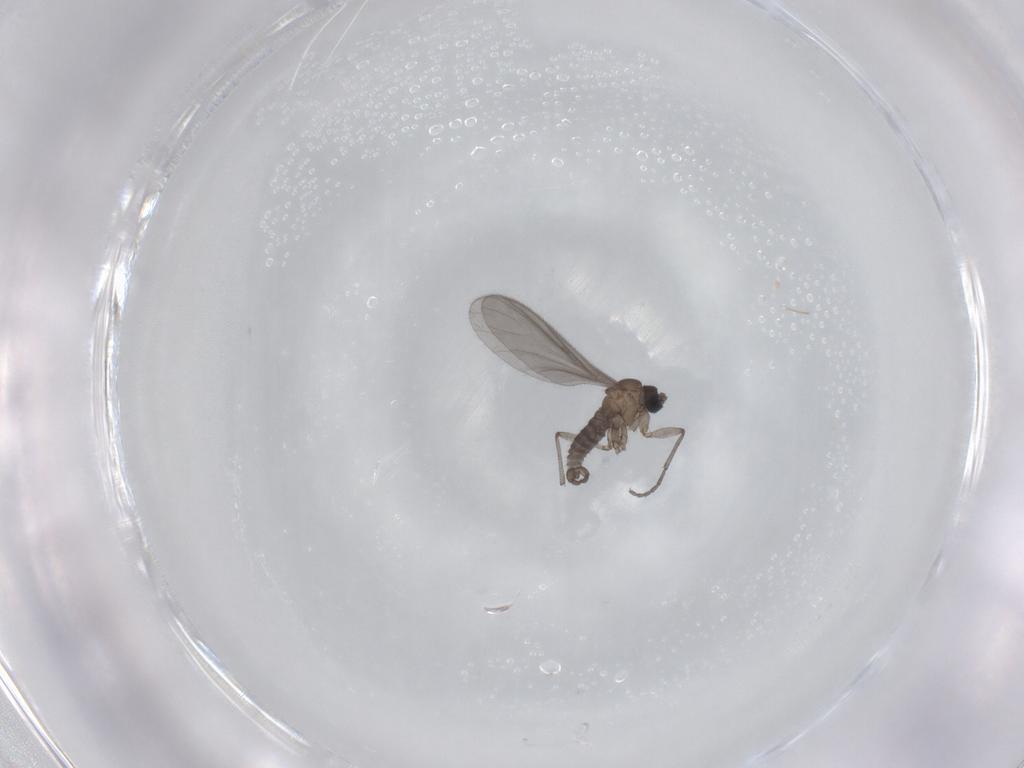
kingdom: Animalia
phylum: Arthropoda
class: Insecta
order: Diptera
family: Sciaridae
